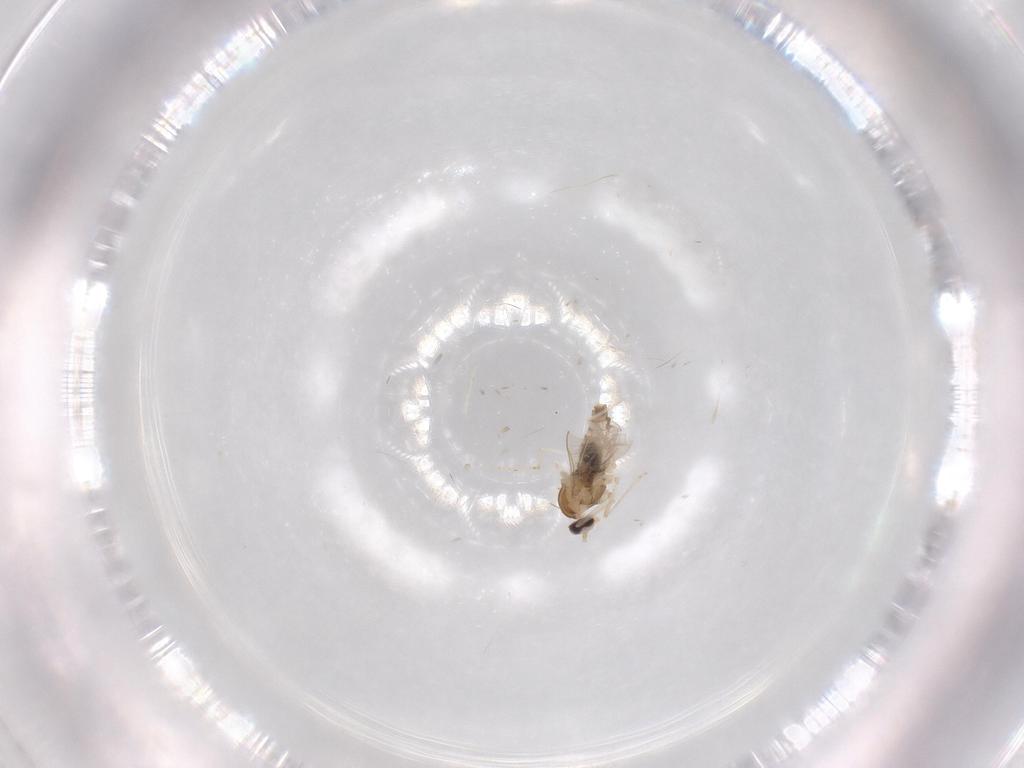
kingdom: Animalia
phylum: Arthropoda
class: Insecta
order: Diptera
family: Cecidomyiidae
